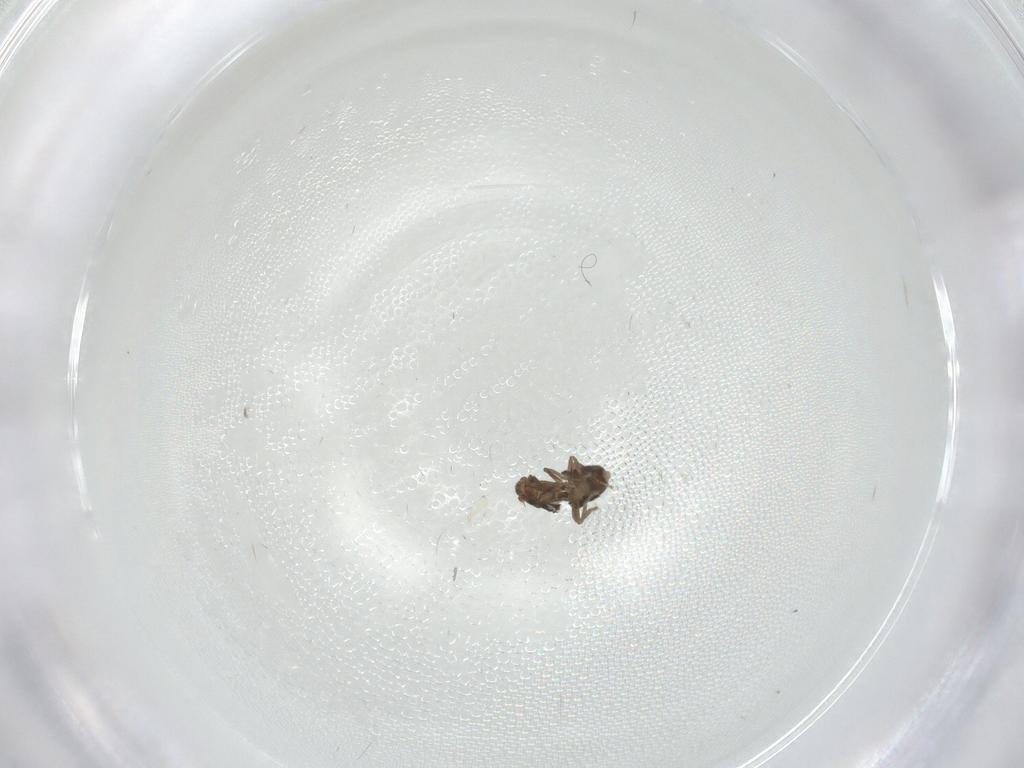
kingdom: Animalia
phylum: Arthropoda
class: Insecta
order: Diptera
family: Phoridae
